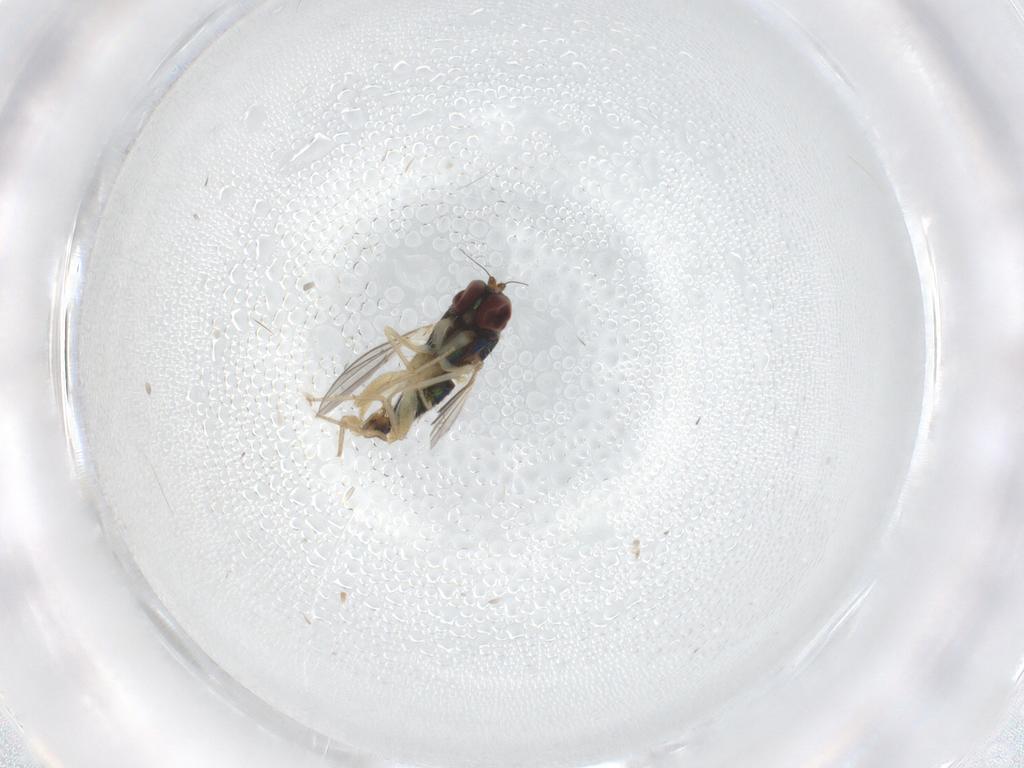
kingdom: Animalia
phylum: Arthropoda
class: Insecta
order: Diptera
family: Dolichopodidae
